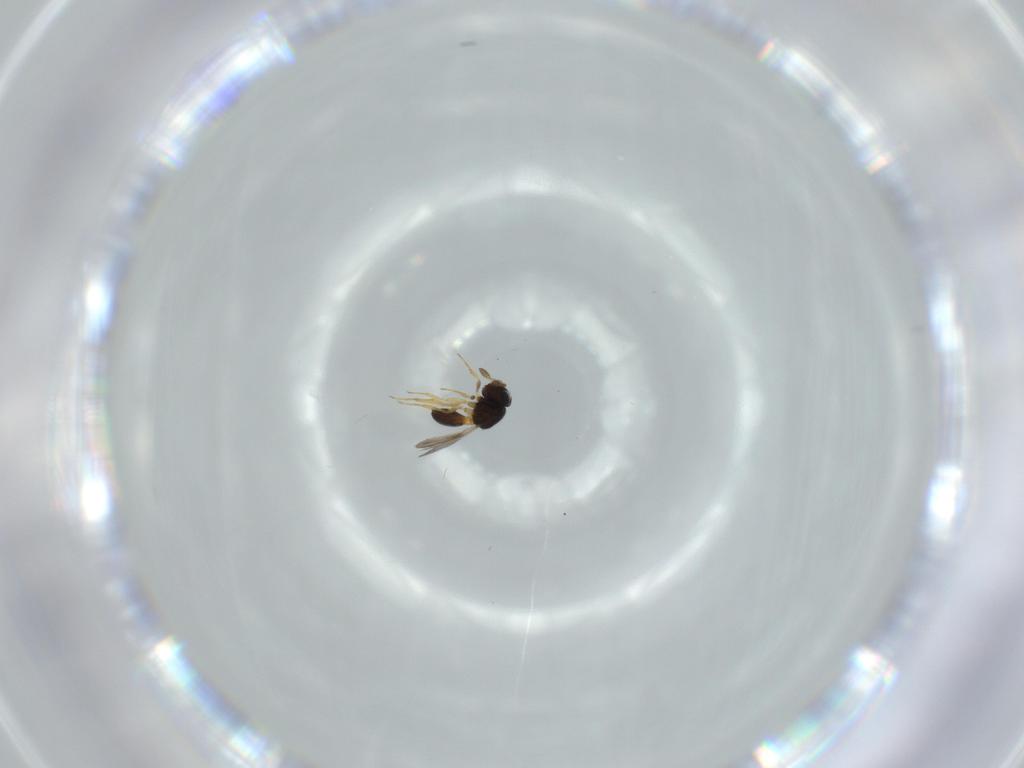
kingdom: Animalia
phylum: Arthropoda
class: Insecta
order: Hymenoptera
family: Scelionidae
